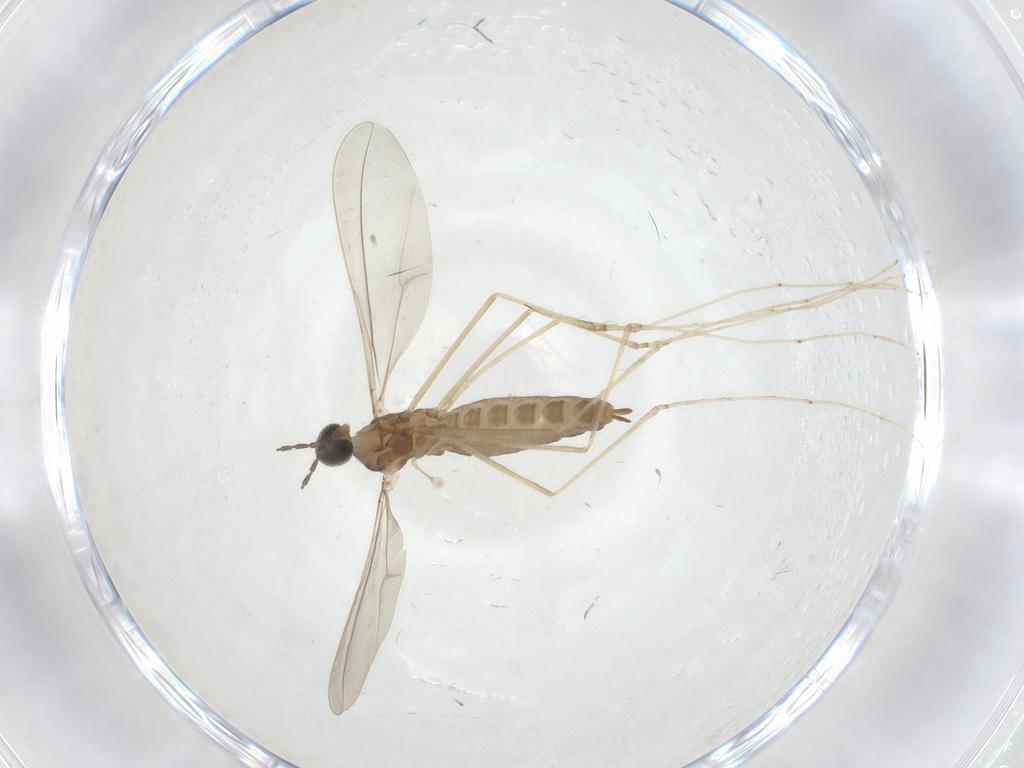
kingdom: Animalia
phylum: Arthropoda
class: Insecta
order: Diptera
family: Cecidomyiidae
